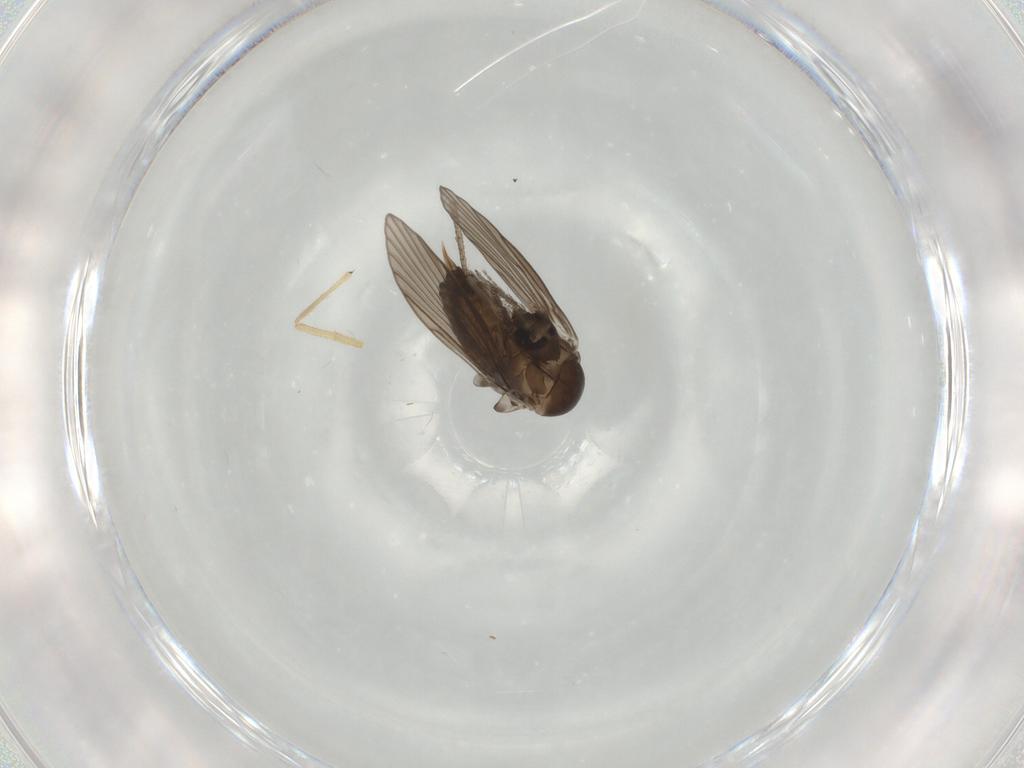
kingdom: Animalia
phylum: Arthropoda
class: Insecta
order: Diptera
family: Psychodidae
